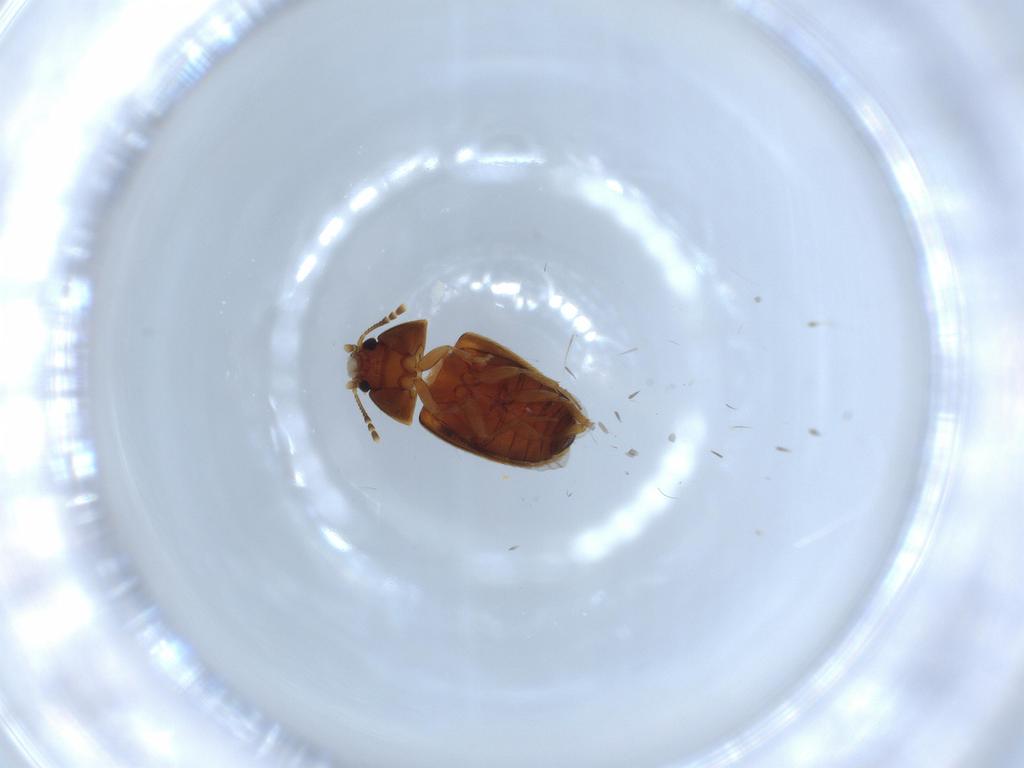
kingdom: Animalia
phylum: Arthropoda
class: Insecta
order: Coleoptera
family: Mycetophagidae
